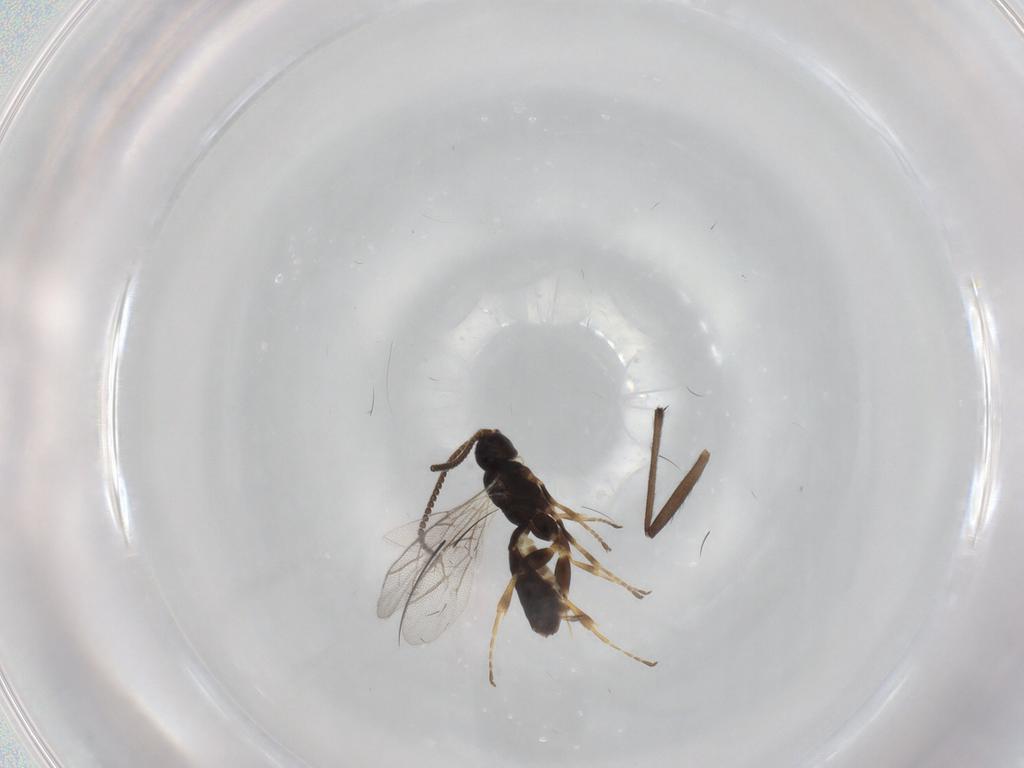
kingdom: Animalia
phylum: Arthropoda
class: Insecta
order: Hymenoptera
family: Ichneumonidae
